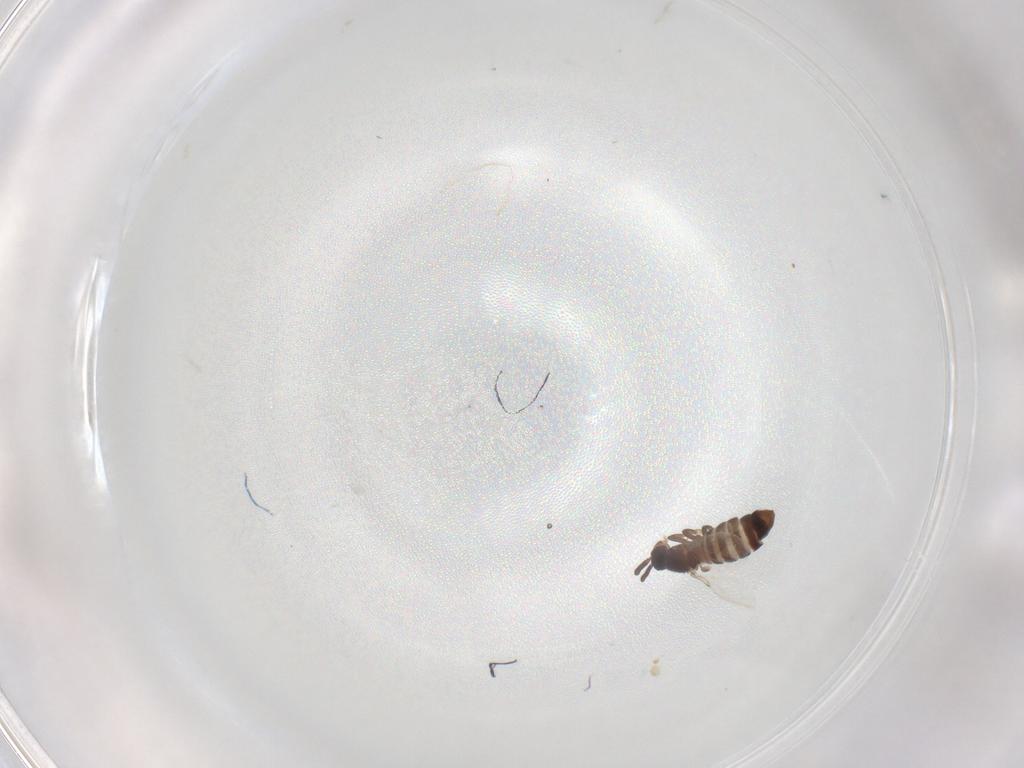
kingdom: Animalia
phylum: Arthropoda
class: Insecta
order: Diptera
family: Scatopsidae
